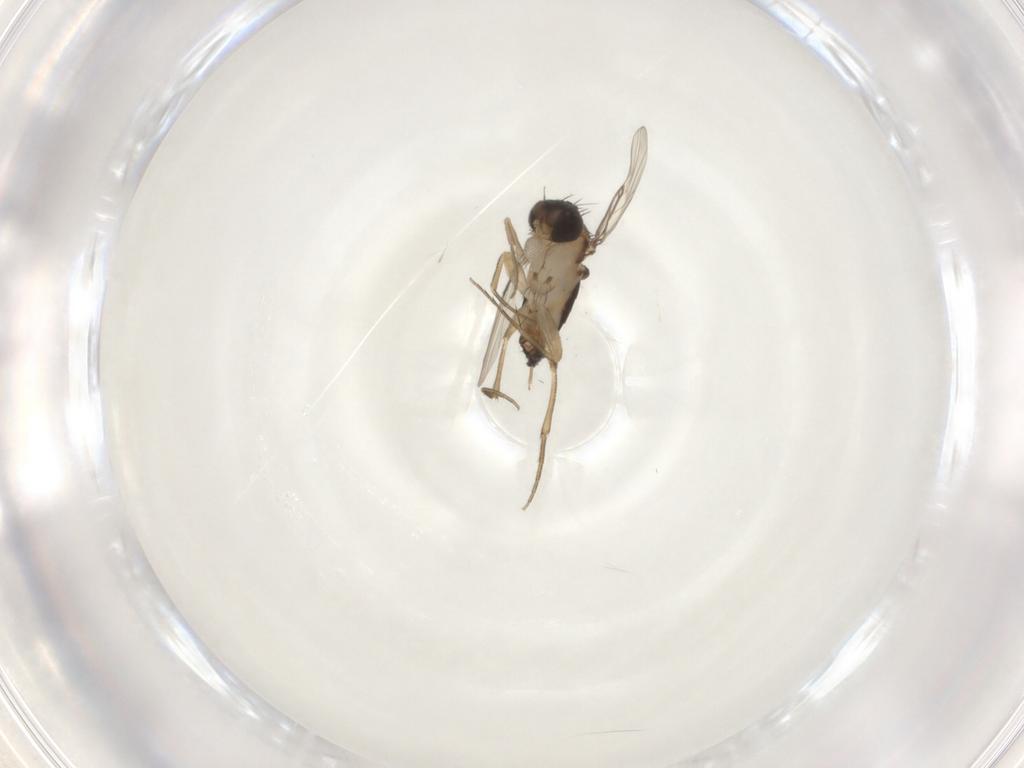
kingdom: Animalia
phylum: Arthropoda
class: Insecta
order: Diptera
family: Phoridae
